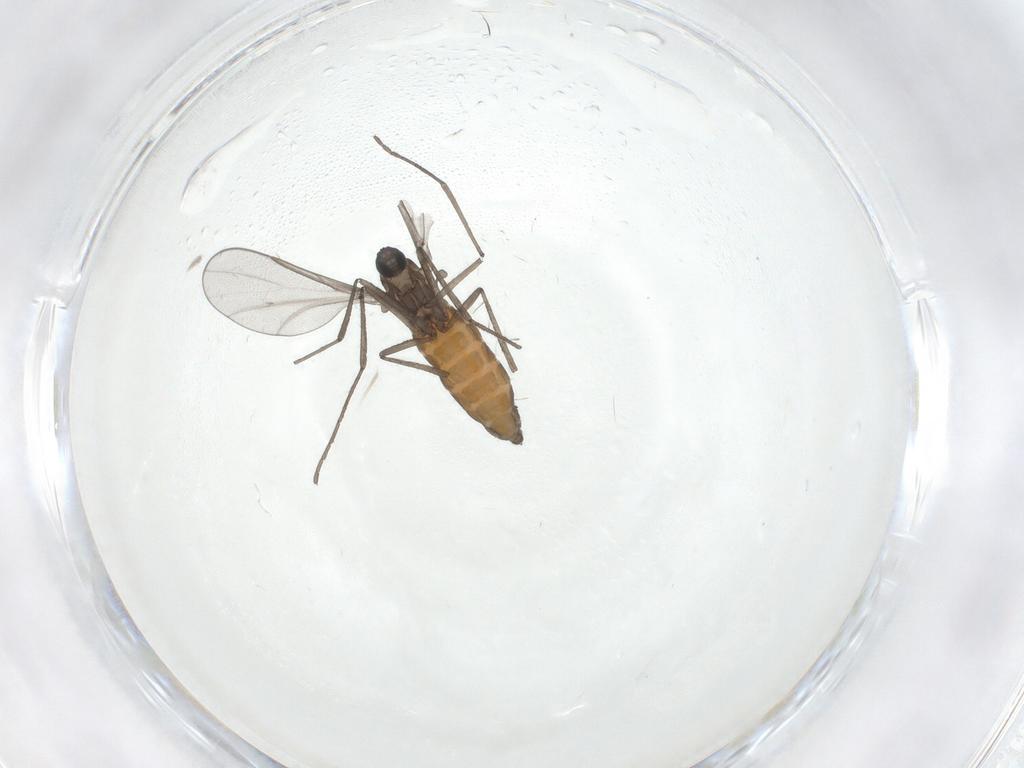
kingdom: Animalia
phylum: Arthropoda
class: Insecta
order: Diptera
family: Cecidomyiidae
